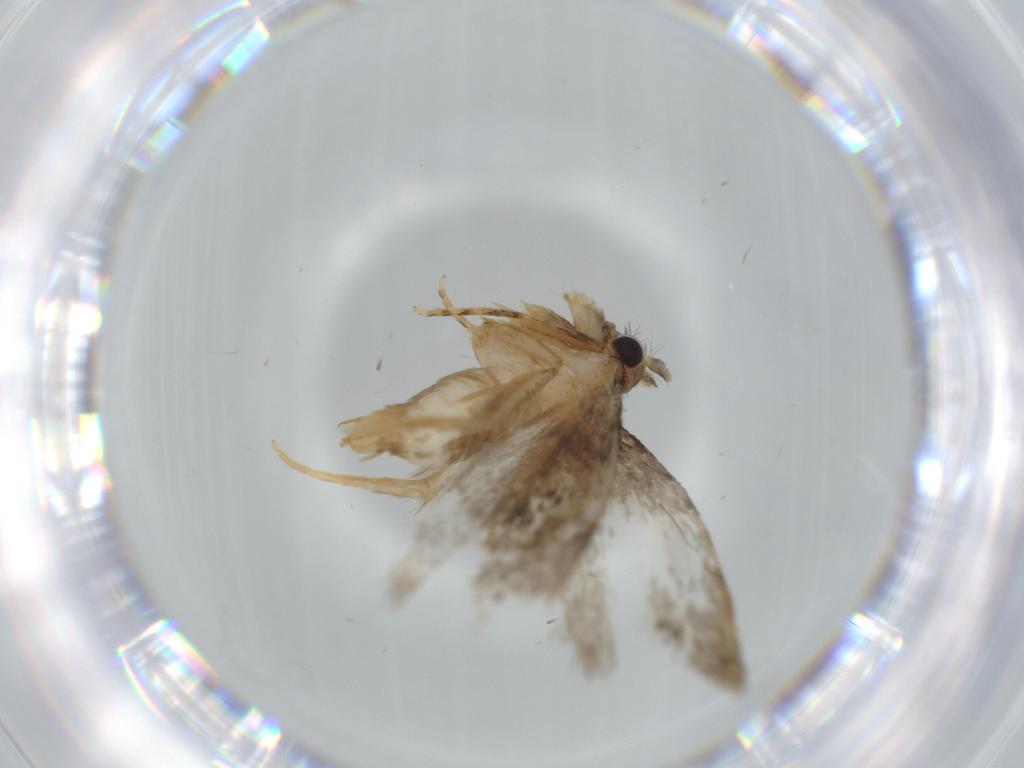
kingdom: Animalia
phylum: Arthropoda
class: Insecta
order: Lepidoptera
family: Tineidae
